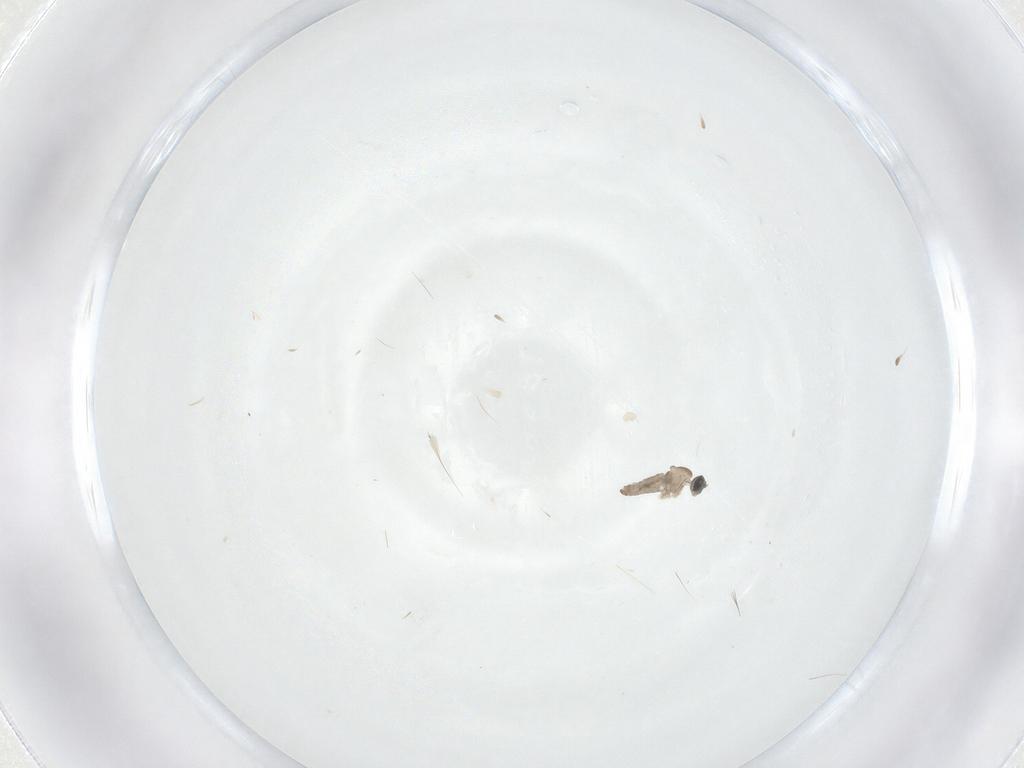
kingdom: Animalia
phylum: Arthropoda
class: Insecta
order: Diptera
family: Cecidomyiidae
